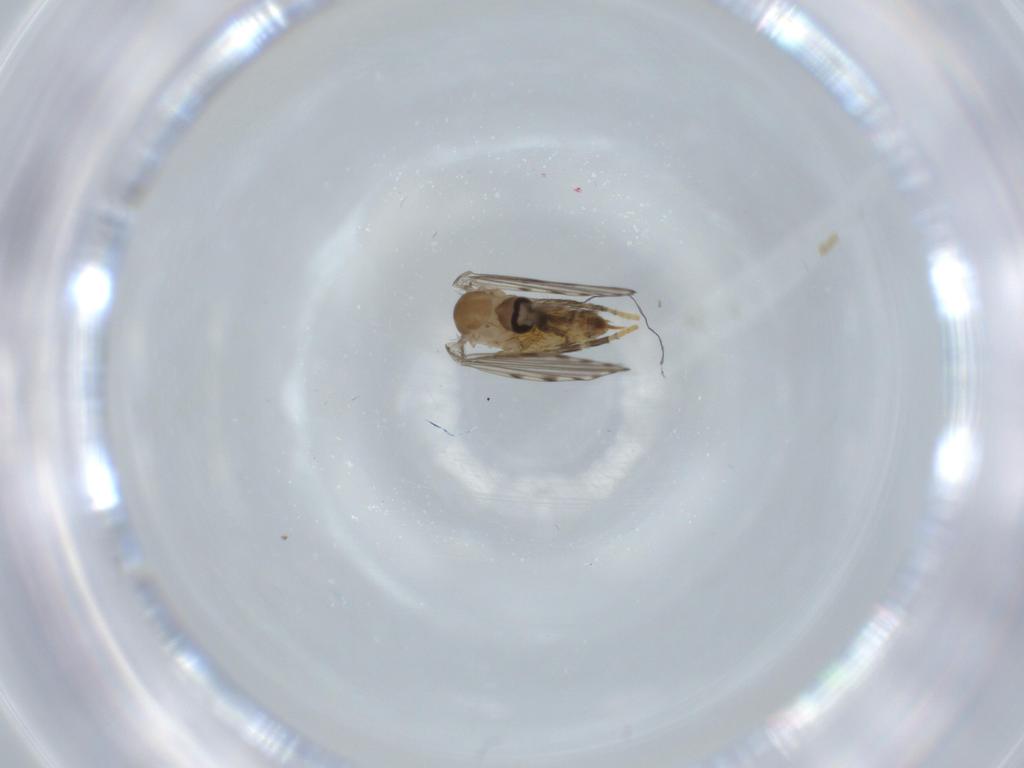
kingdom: Animalia
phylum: Arthropoda
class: Insecta
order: Diptera
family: Psychodidae
